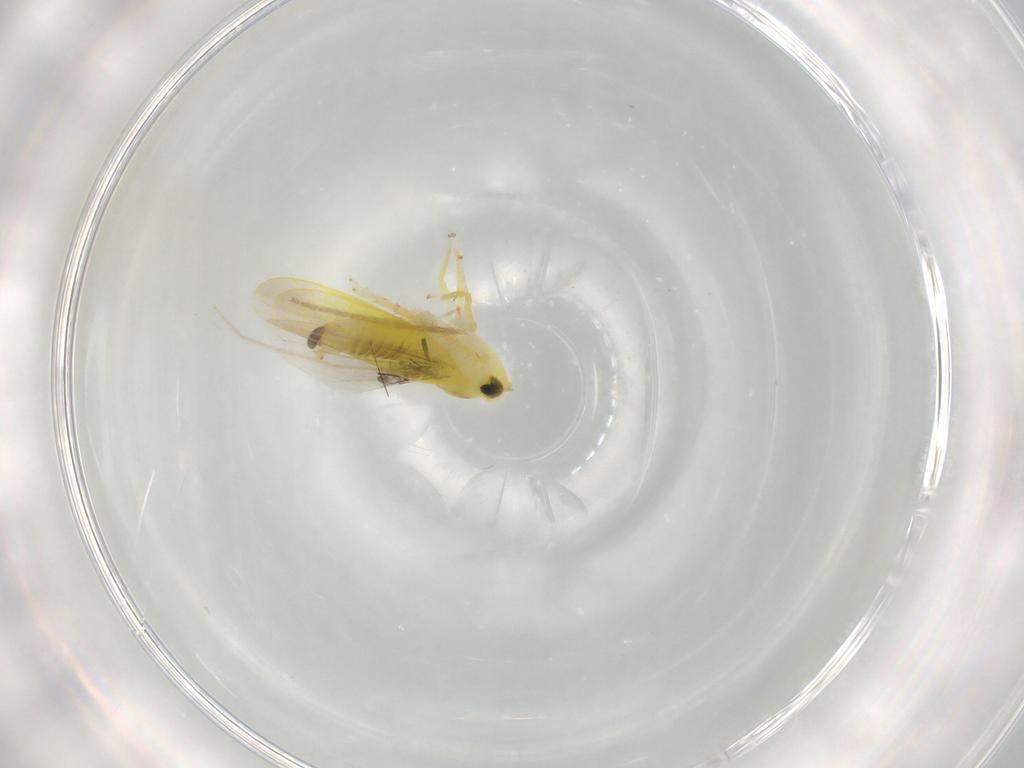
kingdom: Animalia
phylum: Arthropoda
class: Insecta
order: Hemiptera
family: Cicadellidae
